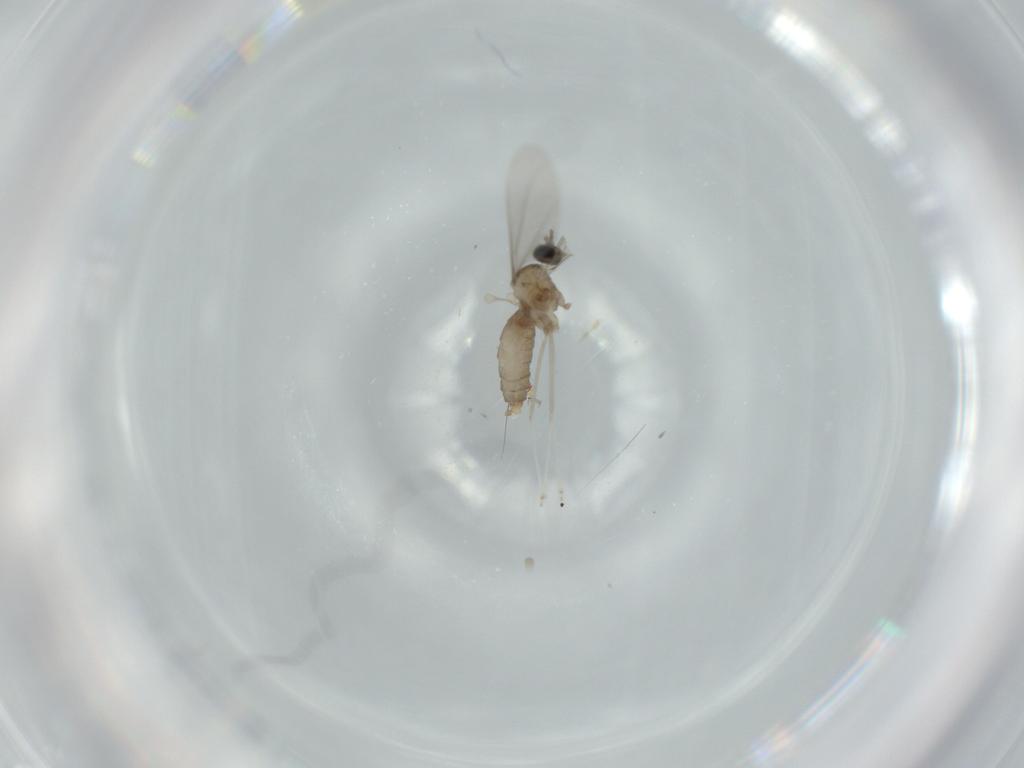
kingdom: Animalia
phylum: Arthropoda
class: Insecta
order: Diptera
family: Cecidomyiidae
